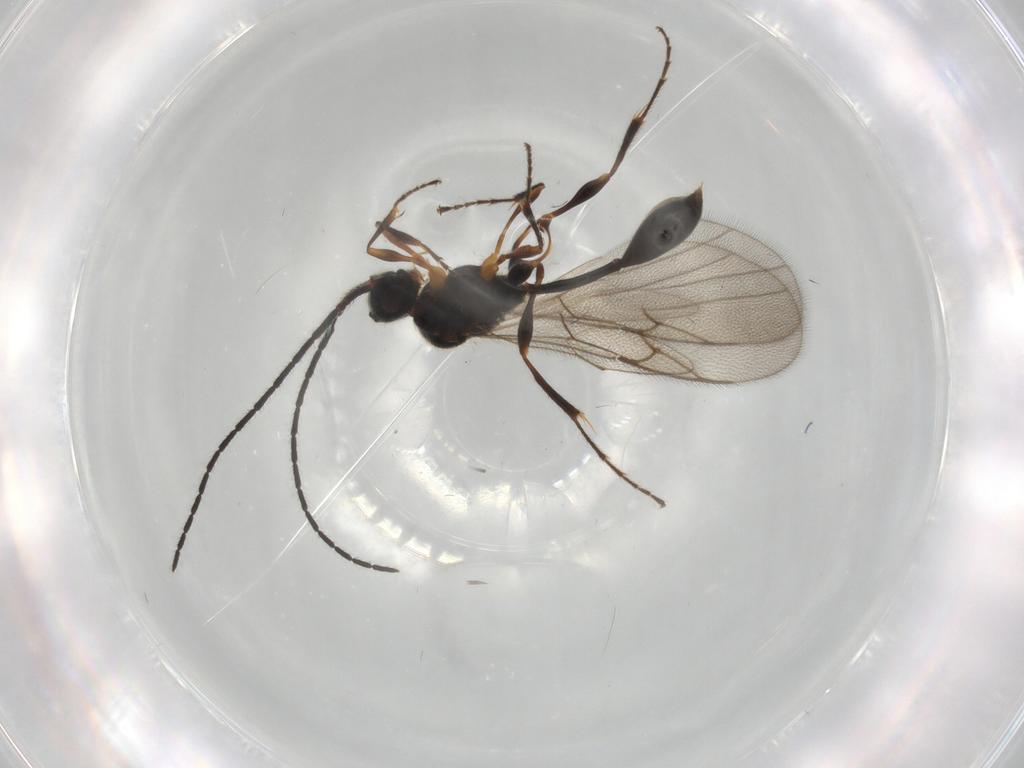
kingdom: Animalia
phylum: Arthropoda
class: Insecta
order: Hymenoptera
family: Diapriidae
